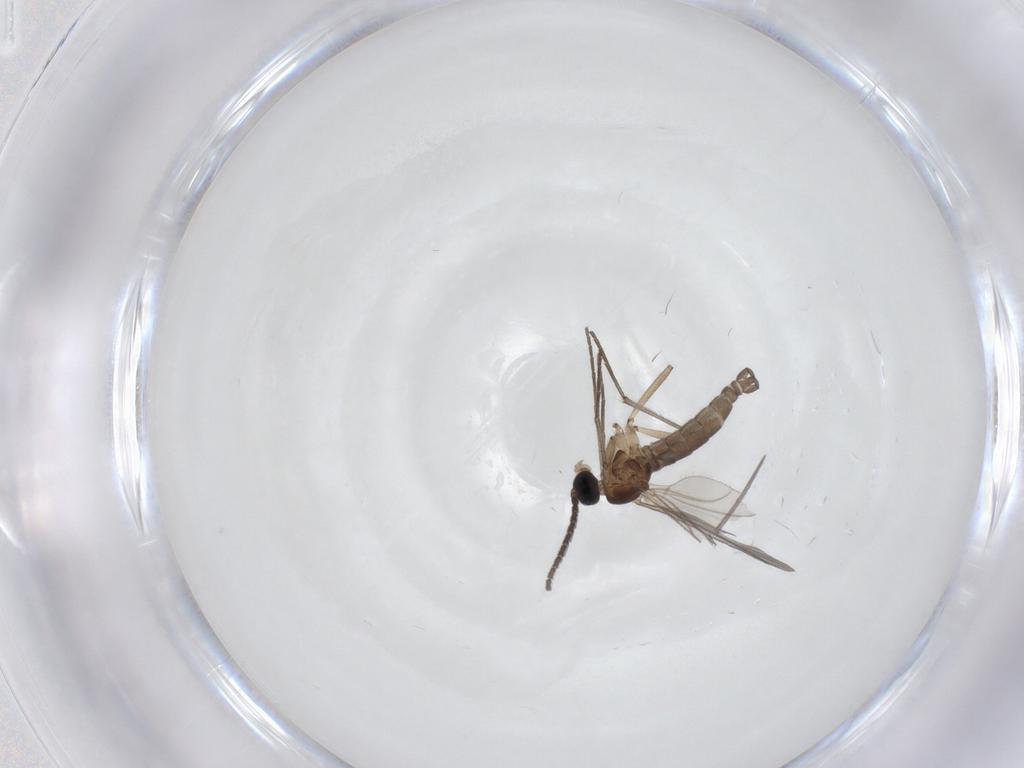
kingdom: Animalia
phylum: Arthropoda
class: Insecta
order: Diptera
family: Sciaridae
